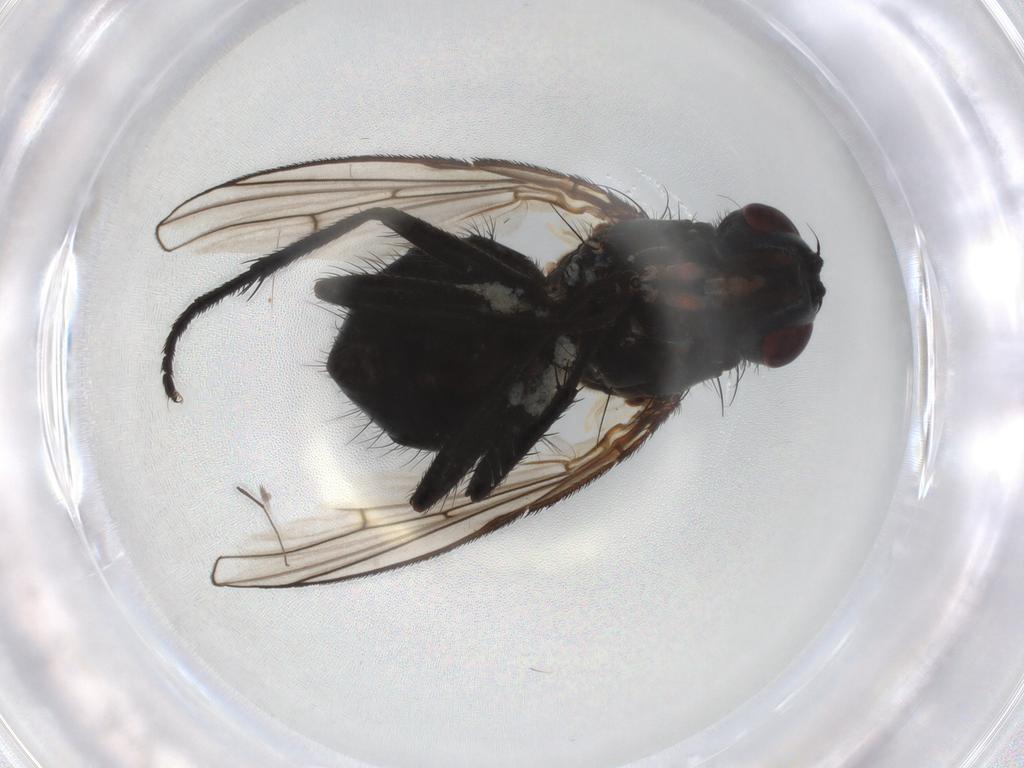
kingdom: Animalia
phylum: Arthropoda
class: Insecta
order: Diptera
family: Muscidae
